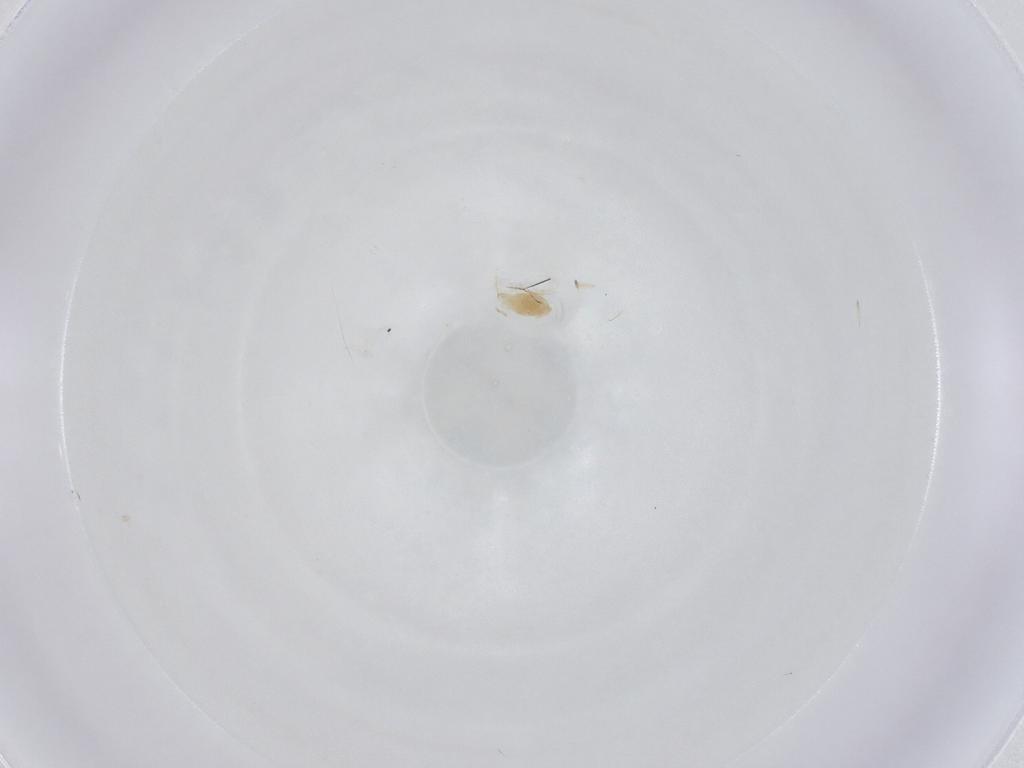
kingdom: Animalia
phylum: Arthropoda
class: Arachnida
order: Trombidiformes
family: Tetranychidae
